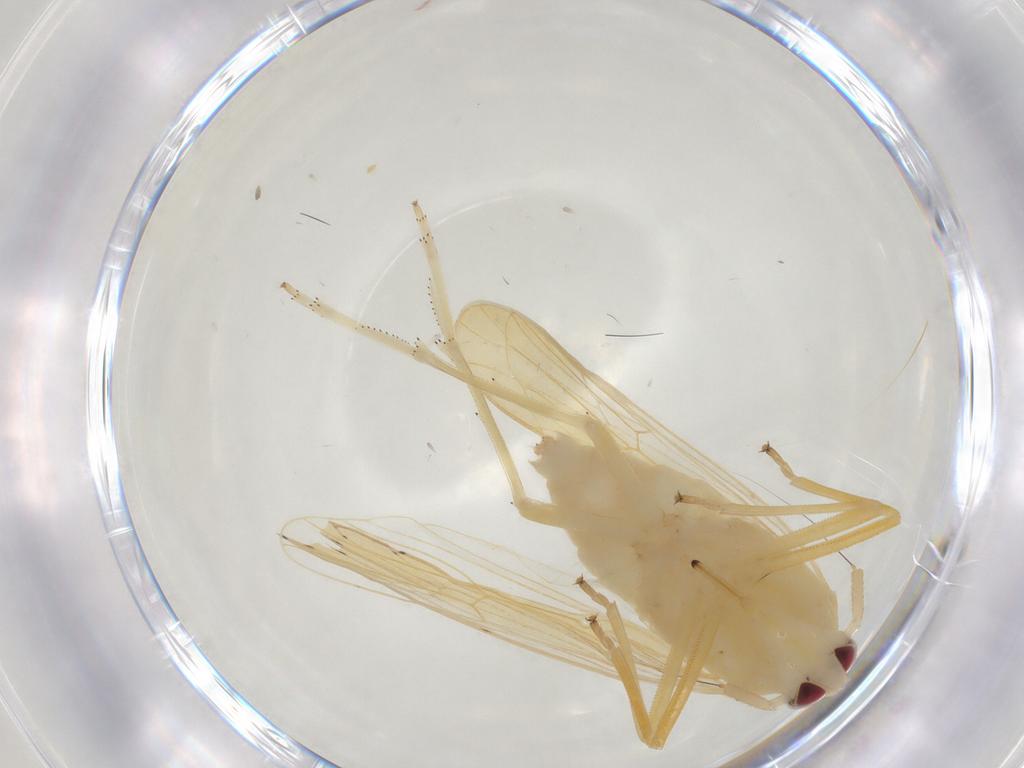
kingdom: Animalia
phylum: Arthropoda
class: Insecta
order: Hemiptera
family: Delphacidae
